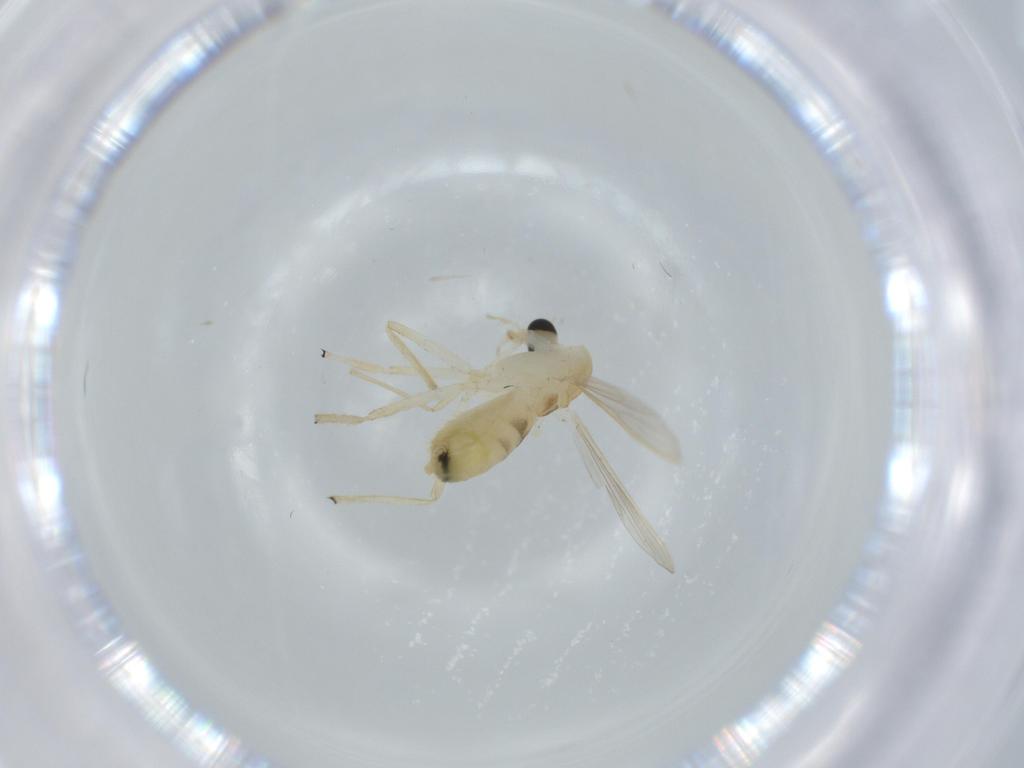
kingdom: Animalia
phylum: Arthropoda
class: Insecta
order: Diptera
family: Chironomidae
